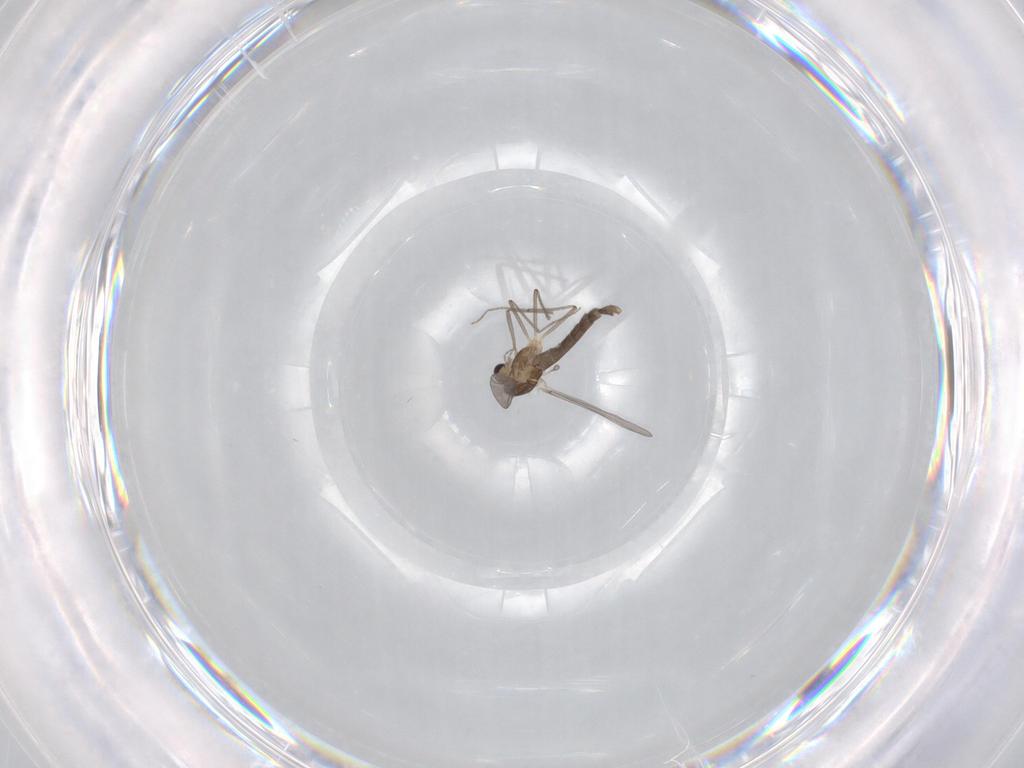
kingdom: Animalia
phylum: Arthropoda
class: Insecta
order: Diptera
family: Chironomidae
